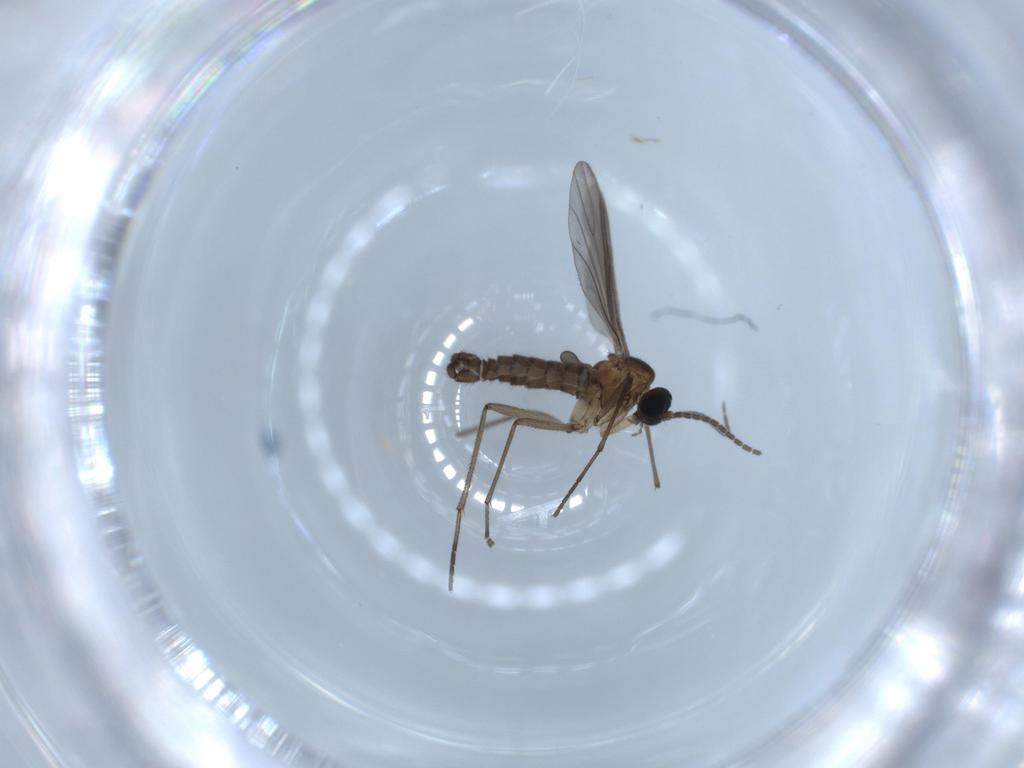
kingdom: Animalia
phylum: Arthropoda
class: Insecta
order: Diptera
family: Sciaridae
